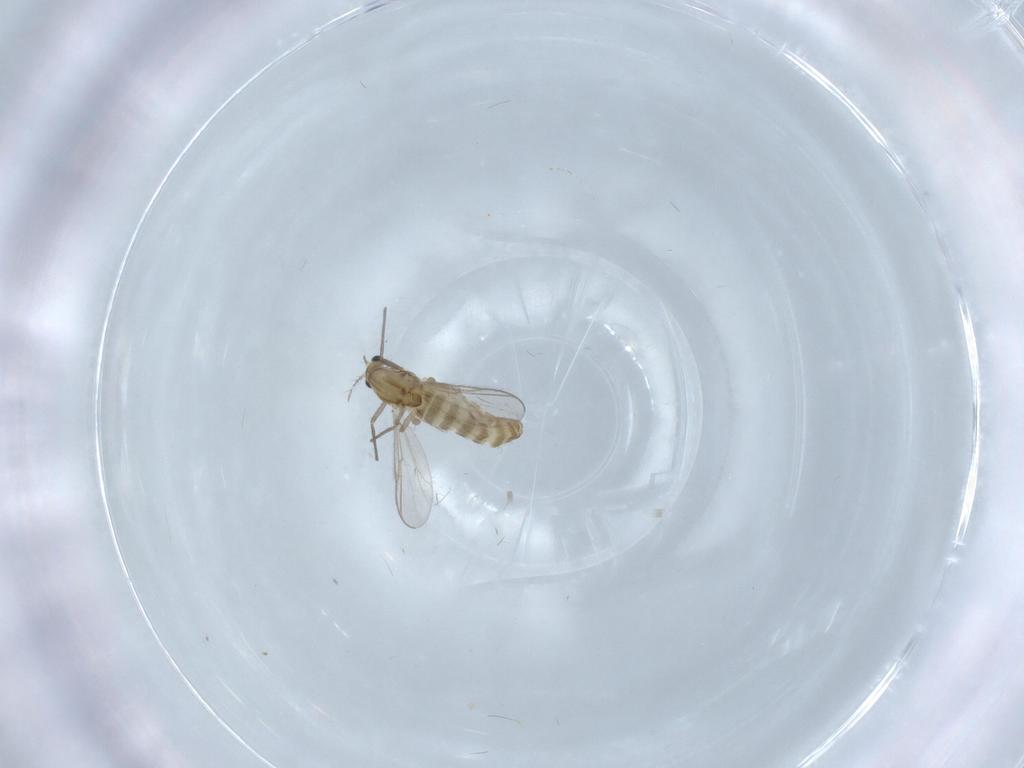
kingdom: Animalia
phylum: Arthropoda
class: Insecta
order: Diptera
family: Chironomidae
